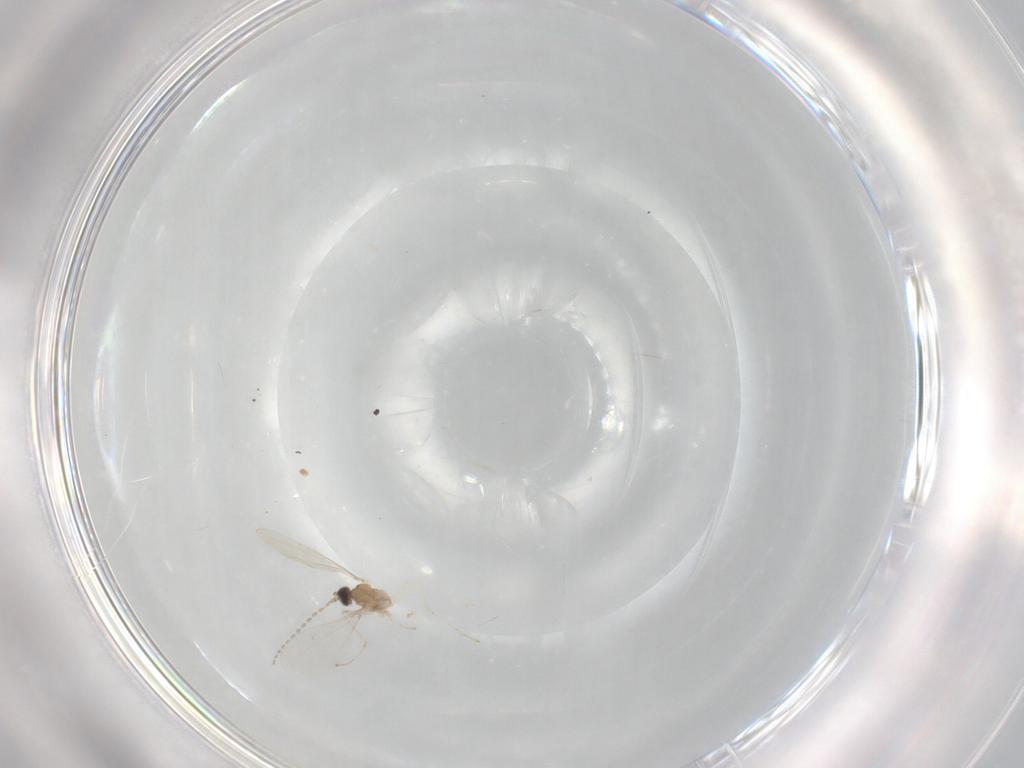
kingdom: Animalia
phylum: Arthropoda
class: Insecta
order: Diptera
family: Cecidomyiidae
